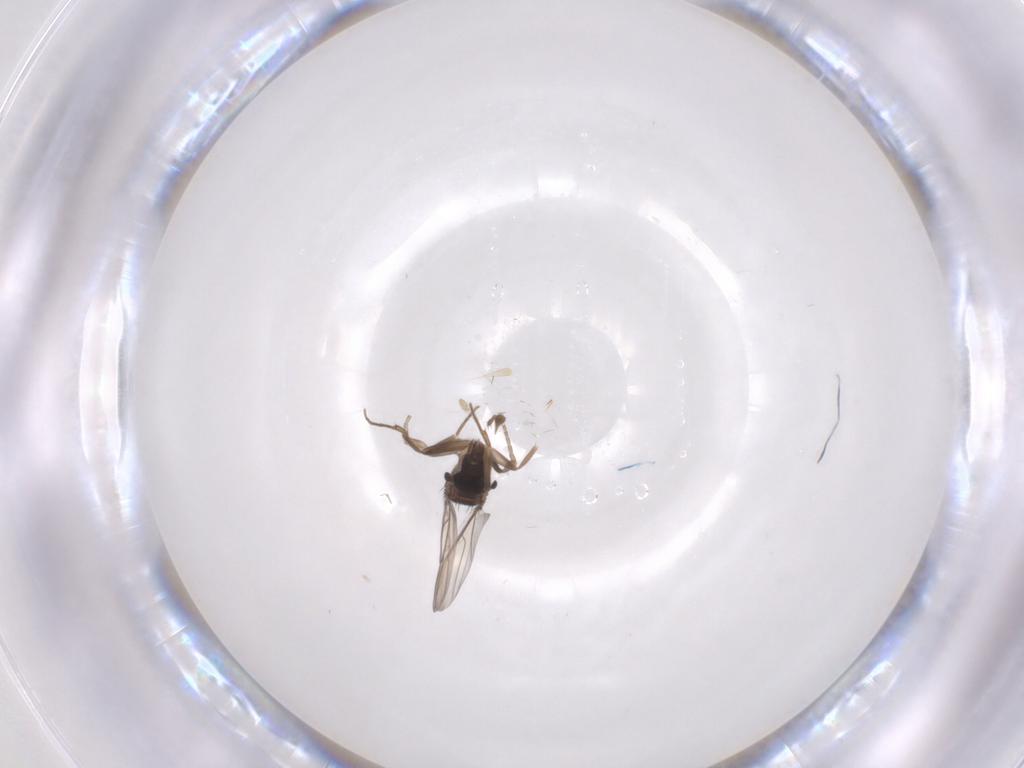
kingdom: Animalia
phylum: Arthropoda
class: Insecta
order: Diptera
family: Phoridae
